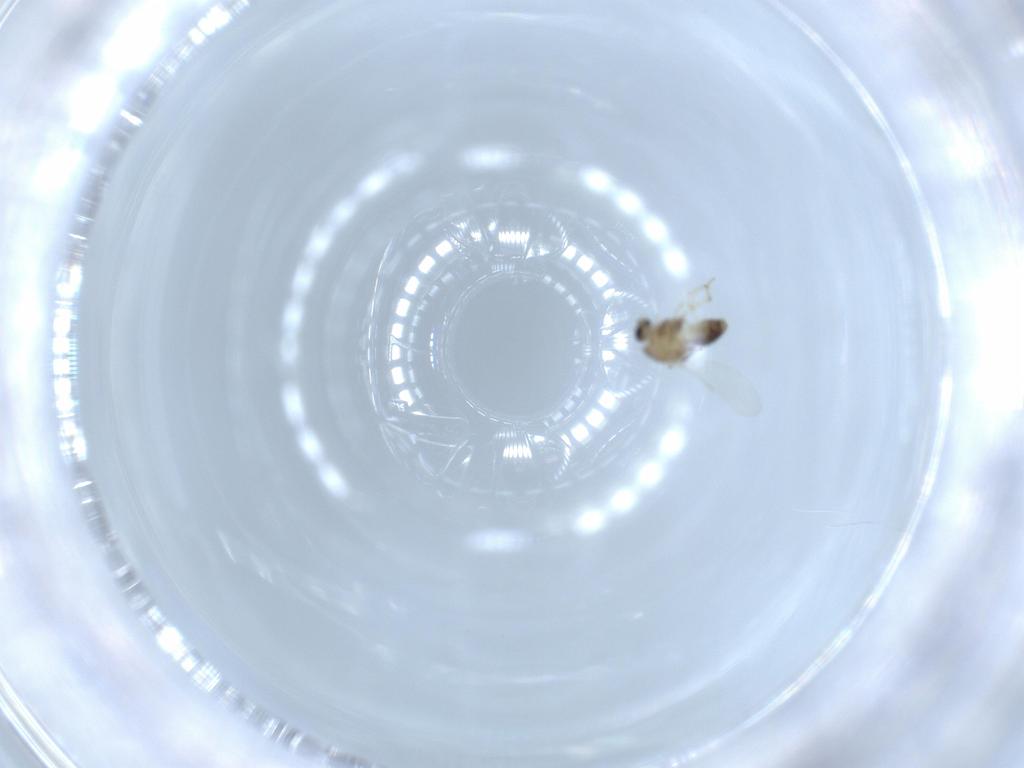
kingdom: Animalia
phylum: Arthropoda
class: Insecta
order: Diptera
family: Chironomidae
